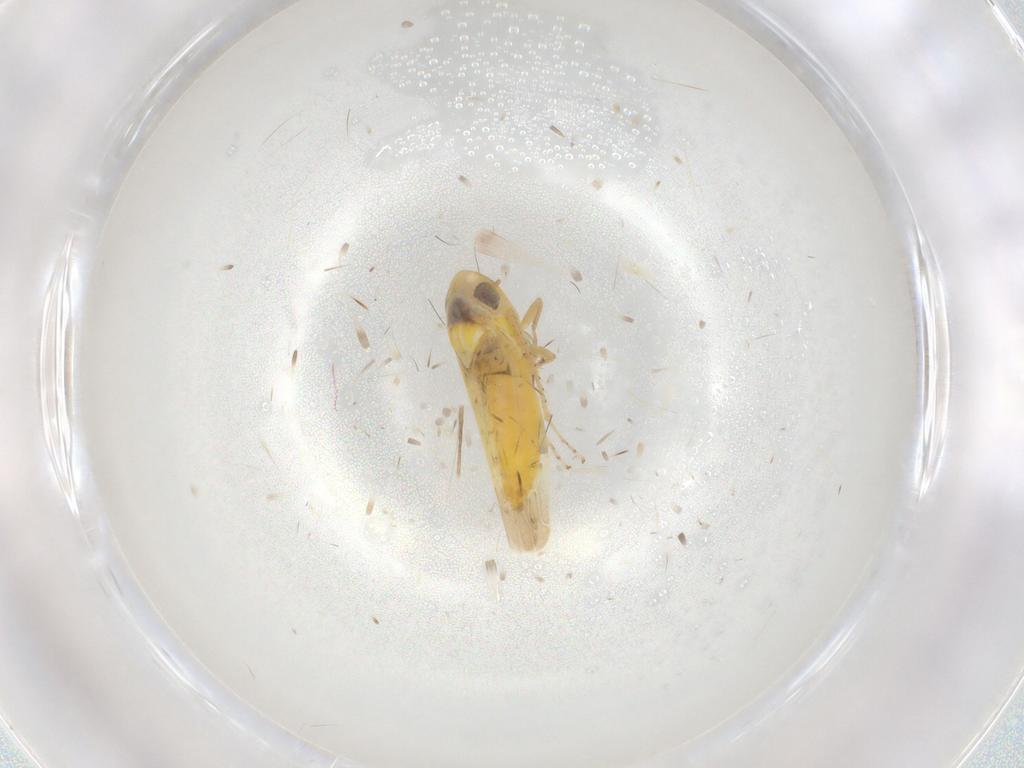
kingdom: Animalia
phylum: Arthropoda
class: Insecta
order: Hemiptera
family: Cicadellidae
